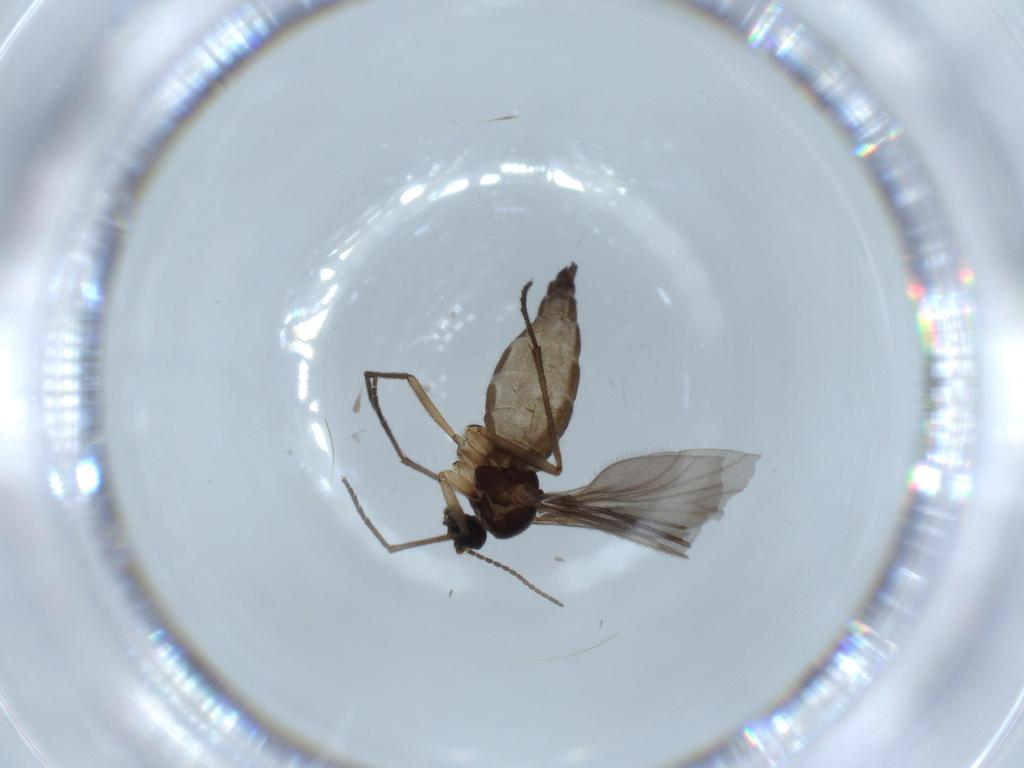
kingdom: Animalia
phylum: Arthropoda
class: Insecta
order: Diptera
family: Sciaridae
